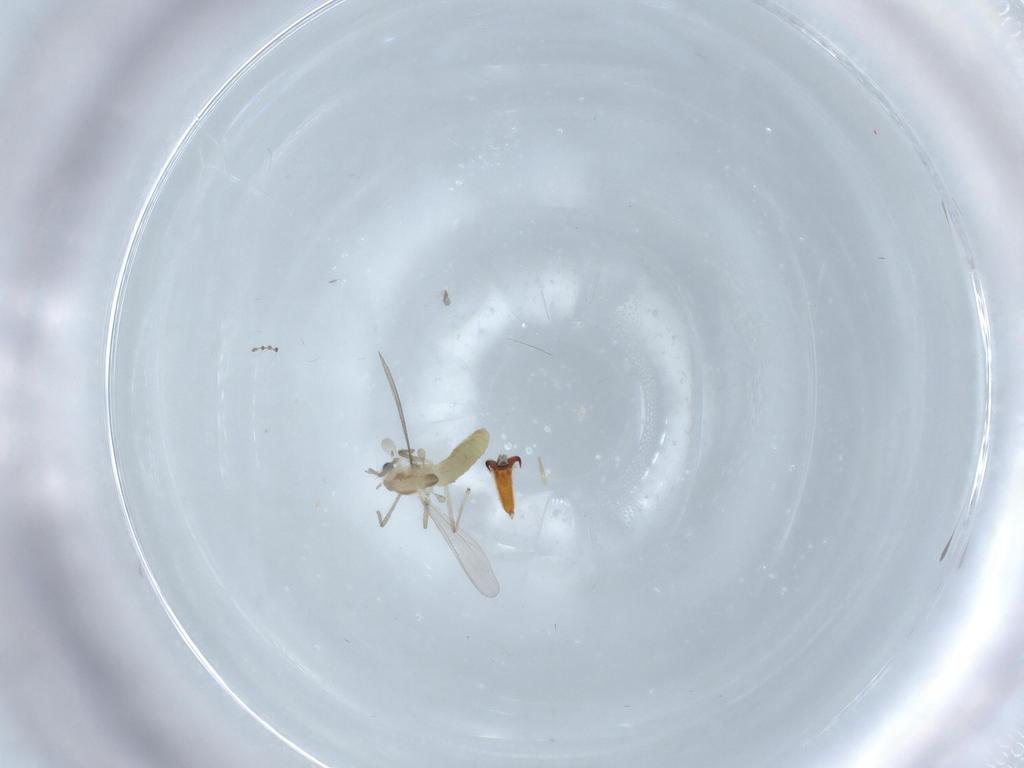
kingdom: Animalia
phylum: Arthropoda
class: Insecta
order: Diptera
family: Chironomidae
